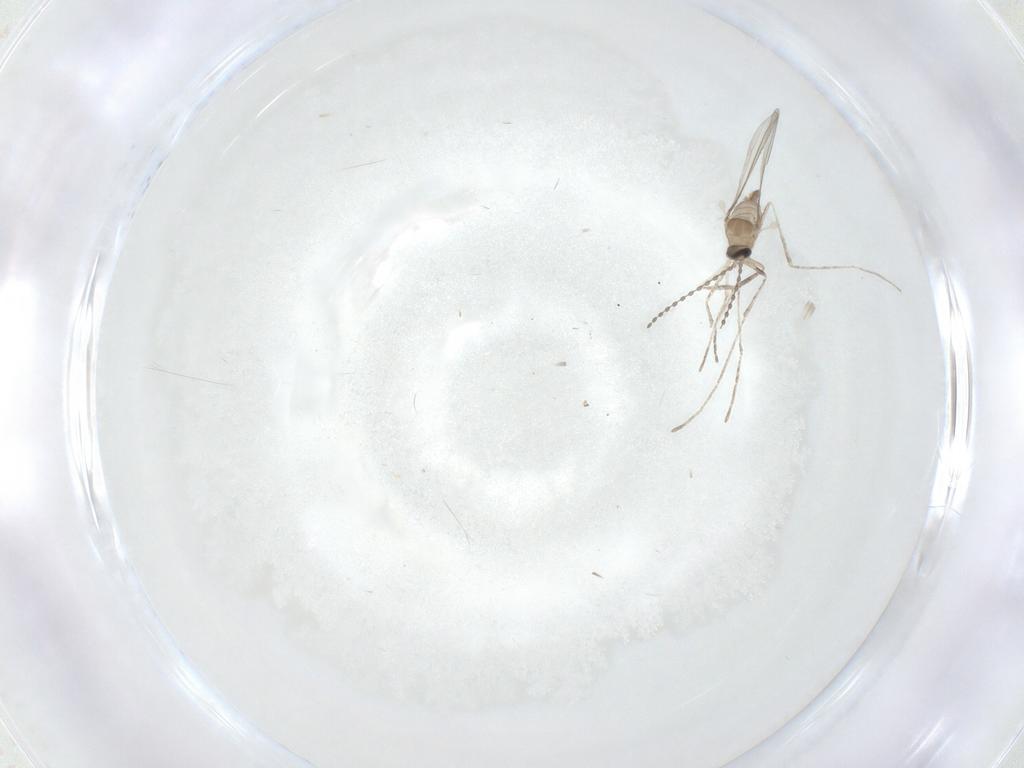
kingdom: Animalia
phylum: Arthropoda
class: Insecta
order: Diptera
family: Cecidomyiidae
